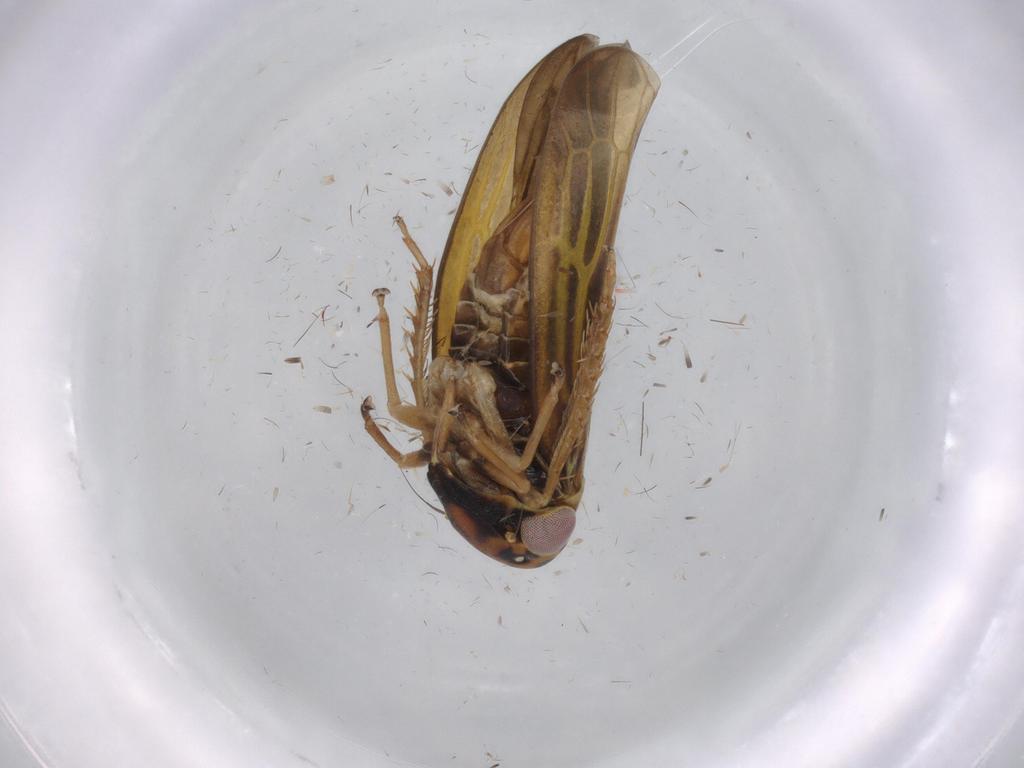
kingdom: Animalia
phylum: Arthropoda
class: Insecta
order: Hemiptera
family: Cicadellidae
